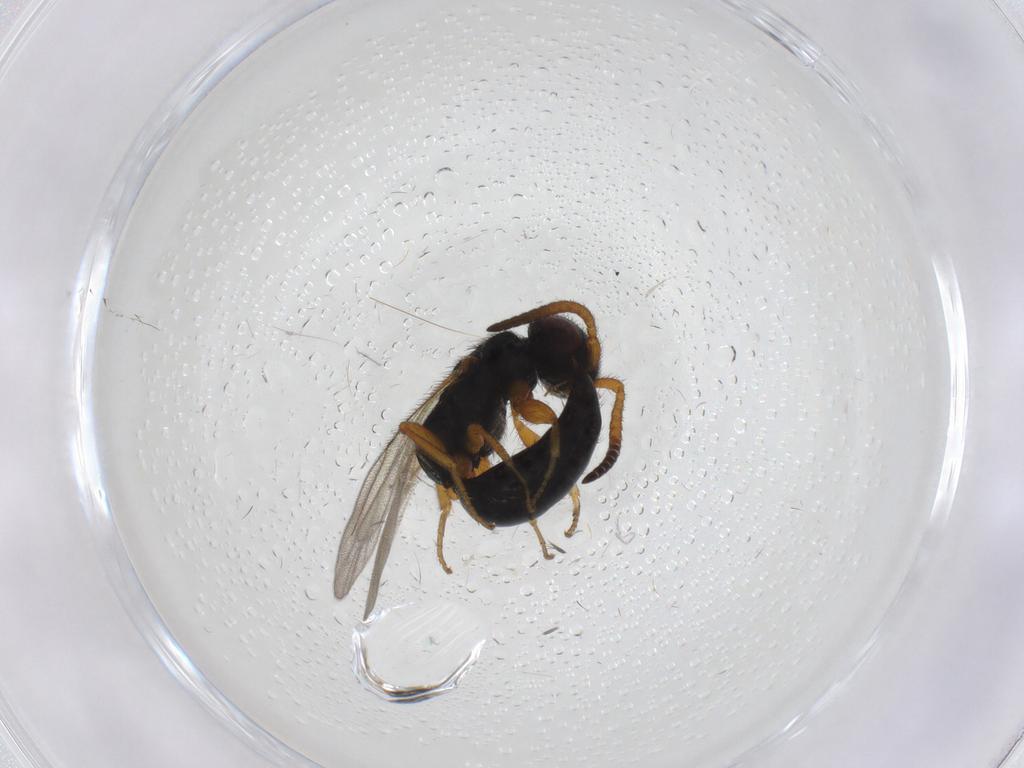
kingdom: Animalia
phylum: Arthropoda
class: Insecta
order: Hymenoptera
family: Bethylidae
